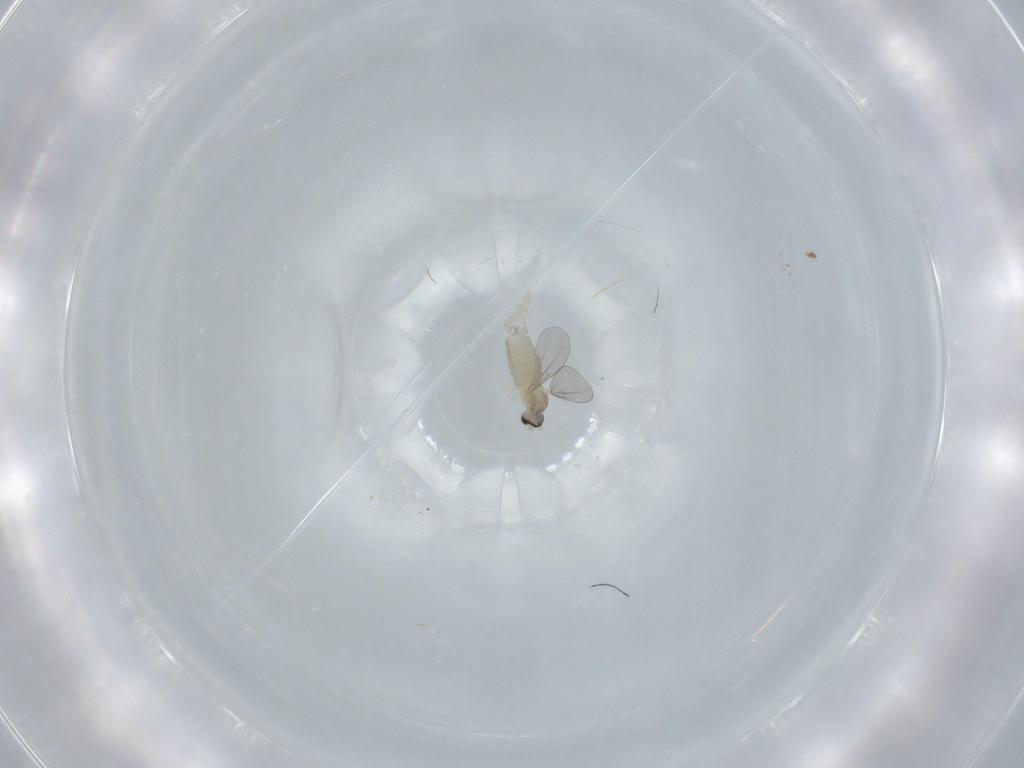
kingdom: Animalia
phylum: Arthropoda
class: Insecta
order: Diptera
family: Cecidomyiidae
